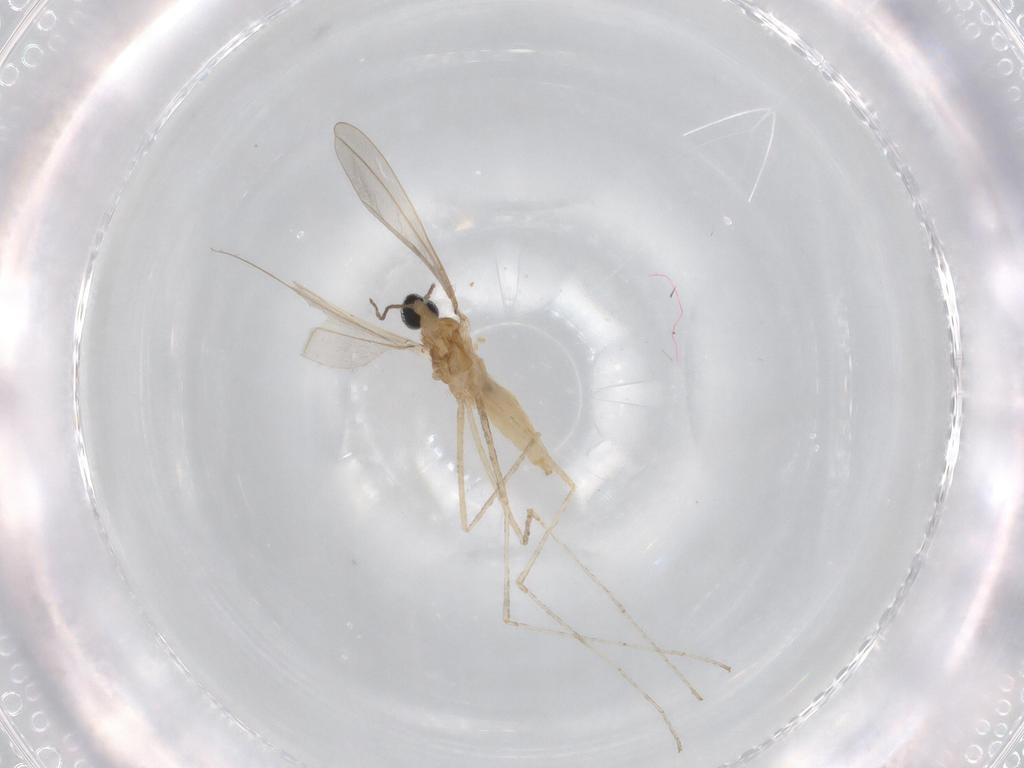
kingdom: Animalia
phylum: Arthropoda
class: Insecta
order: Diptera
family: Cecidomyiidae
